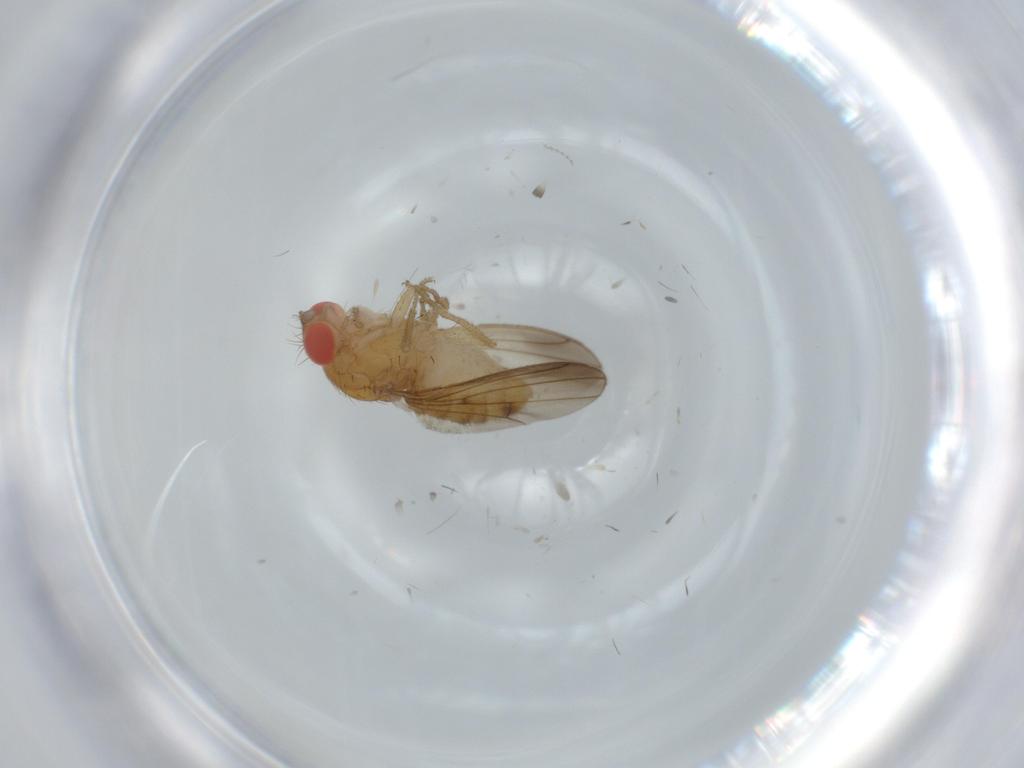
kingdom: Animalia
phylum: Arthropoda
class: Insecta
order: Diptera
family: Drosophilidae
